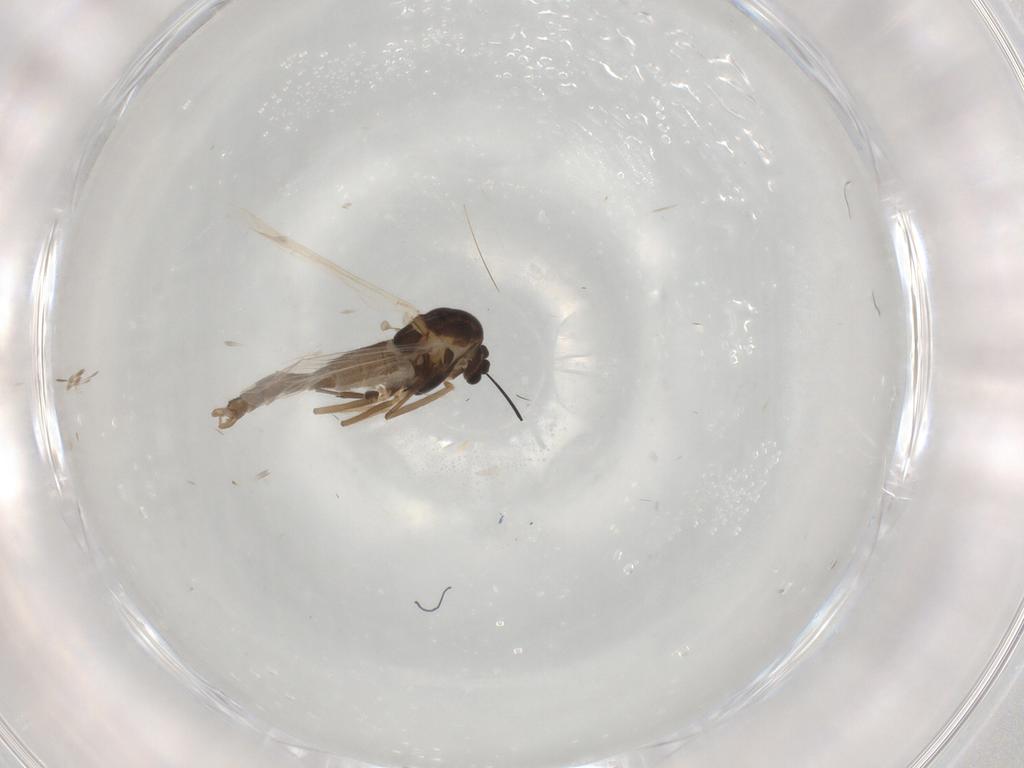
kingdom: Animalia
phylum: Arthropoda
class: Insecta
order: Diptera
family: Chironomidae
